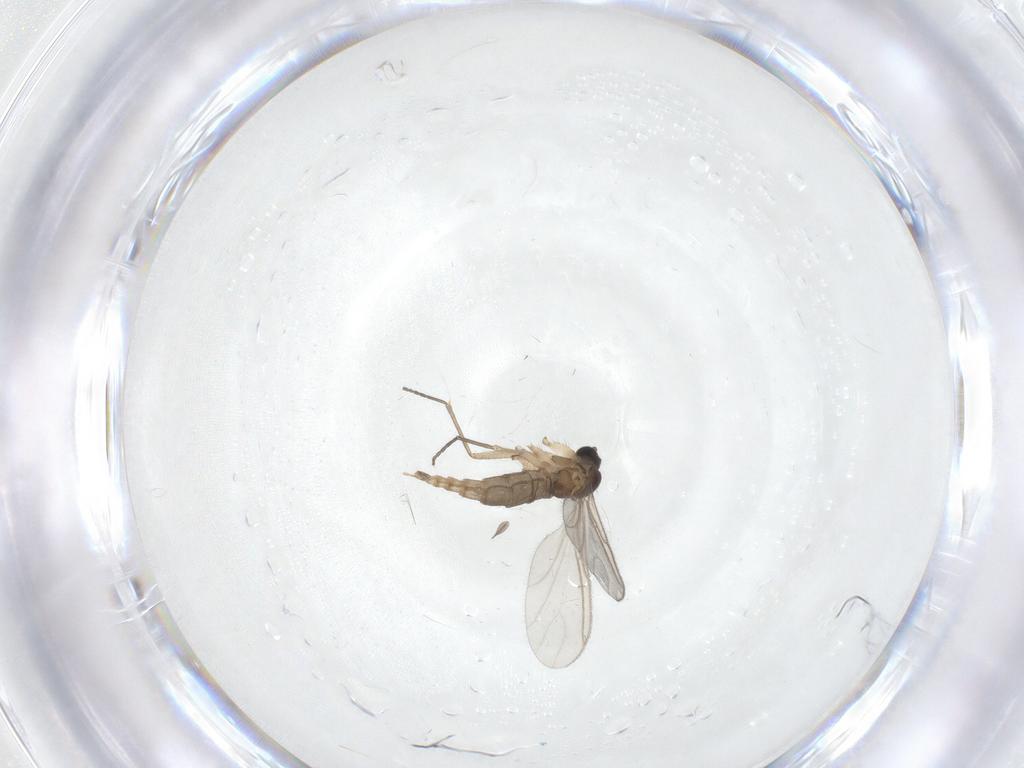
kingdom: Animalia
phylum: Arthropoda
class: Insecta
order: Diptera
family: Sciaridae
